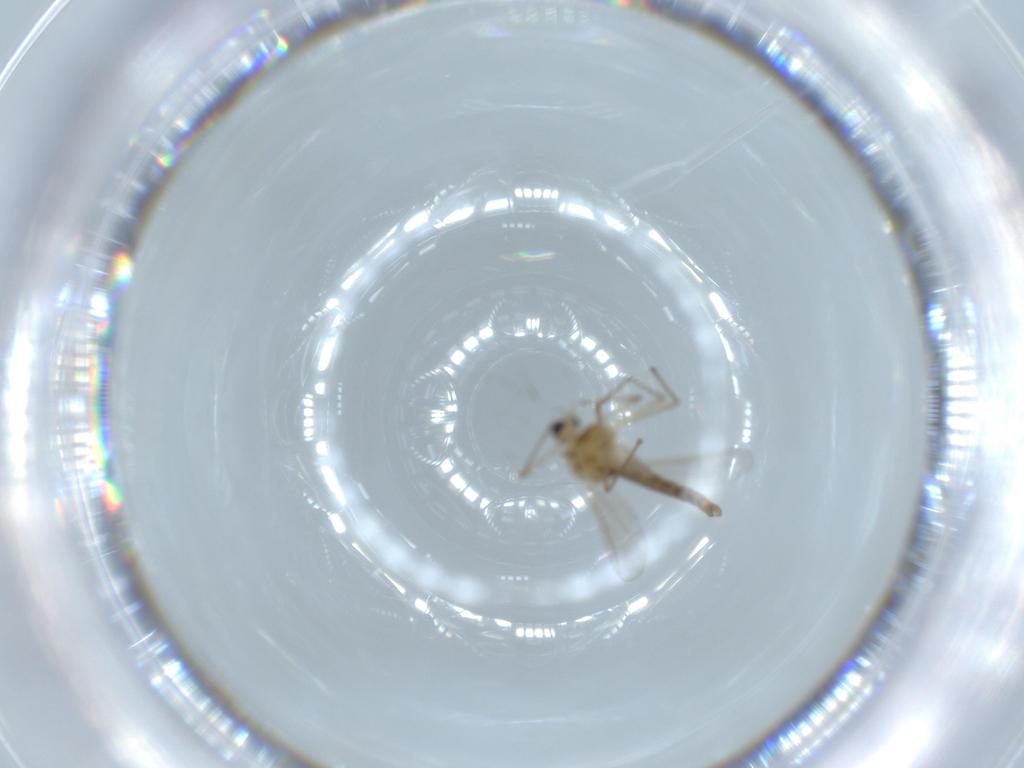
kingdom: Animalia
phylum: Arthropoda
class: Insecta
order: Diptera
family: Chironomidae
